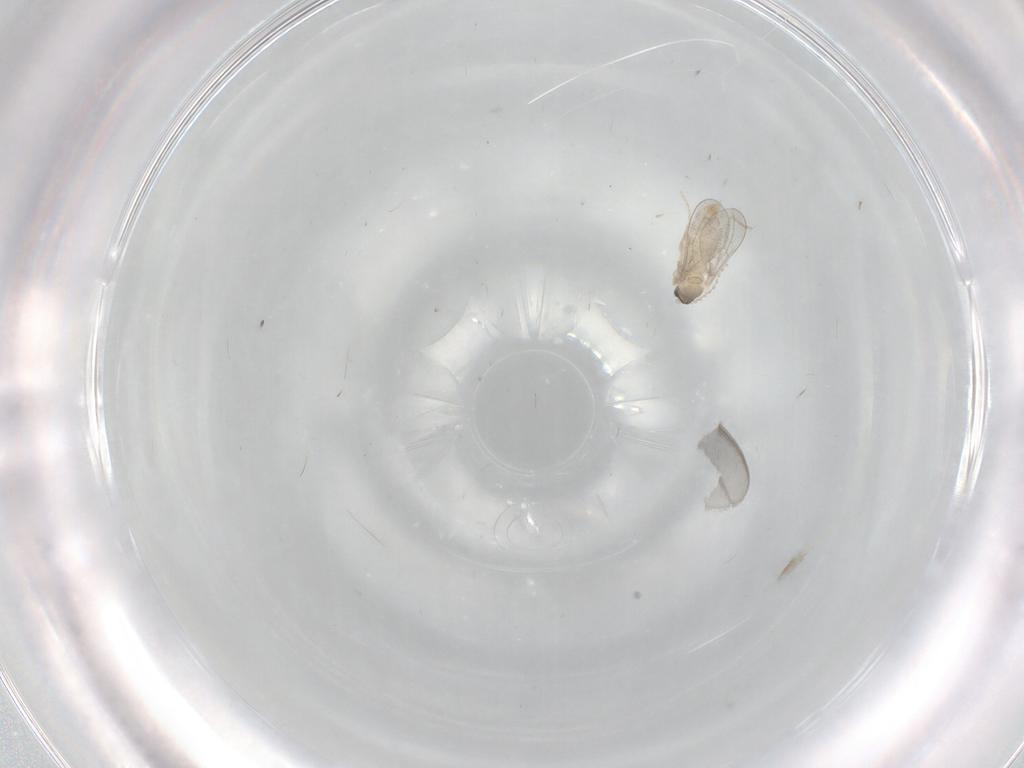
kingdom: Animalia
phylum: Arthropoda
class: Insecta
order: Diptera
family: Cecidomyiidae
